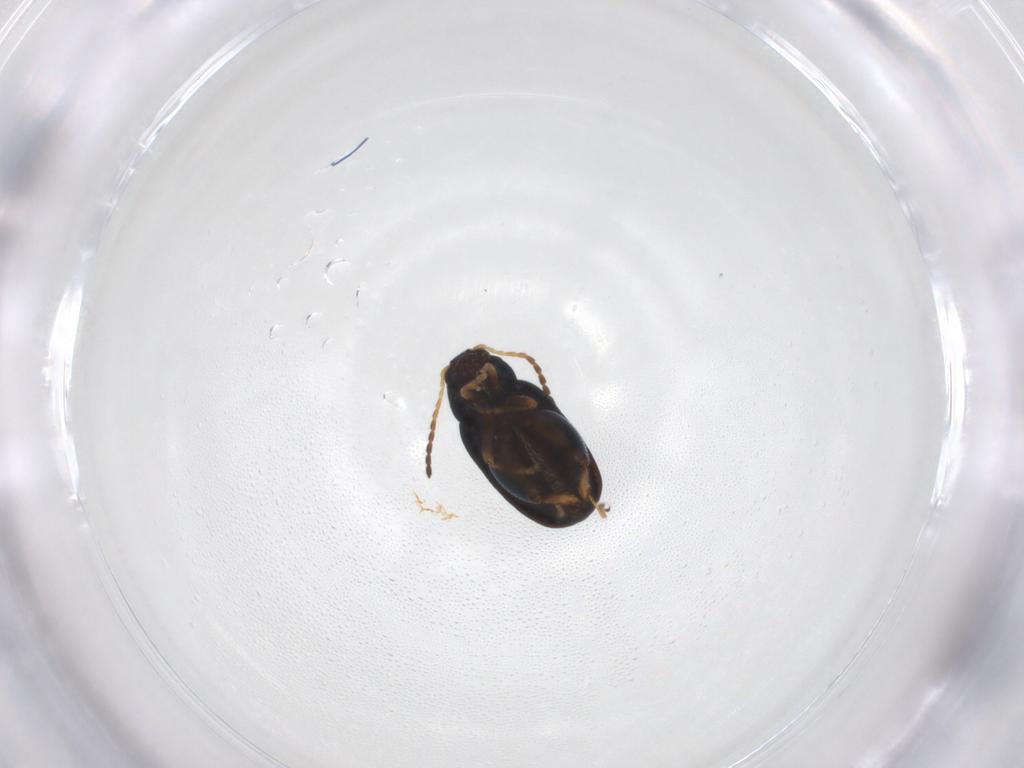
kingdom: Animalia
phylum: Arthropoda
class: Insecta
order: Coleoptera
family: Chrysomelidae
